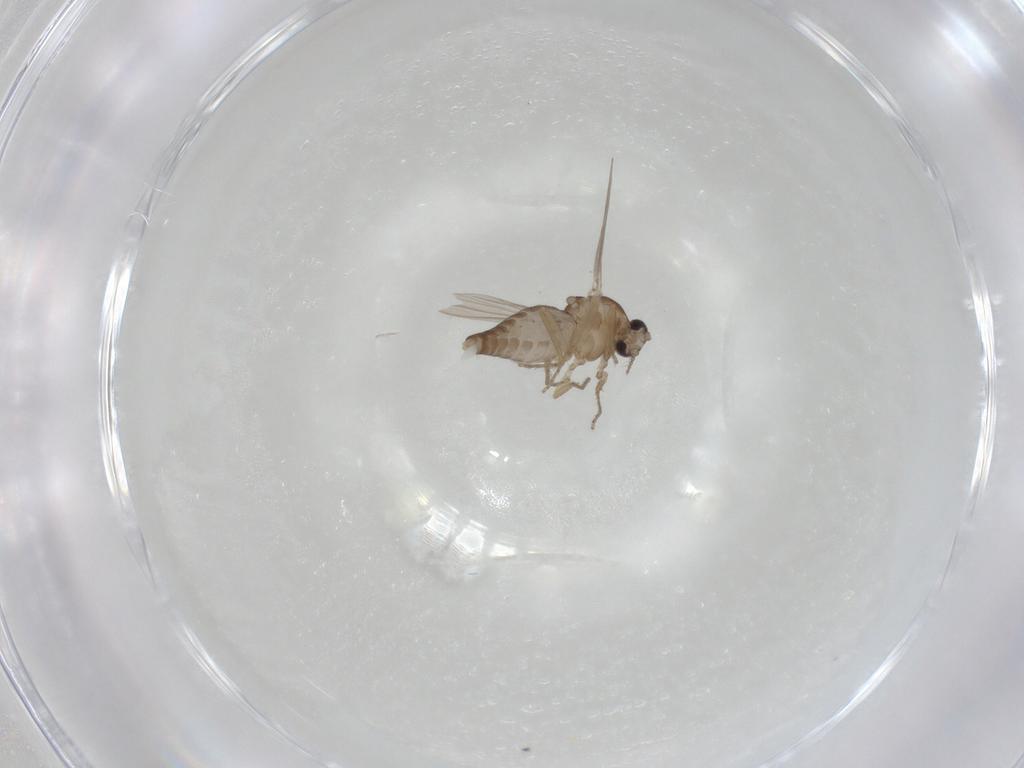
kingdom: Animalia
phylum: Arthropoda
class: Insecta
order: Diptera
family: Ceratopogonidae
